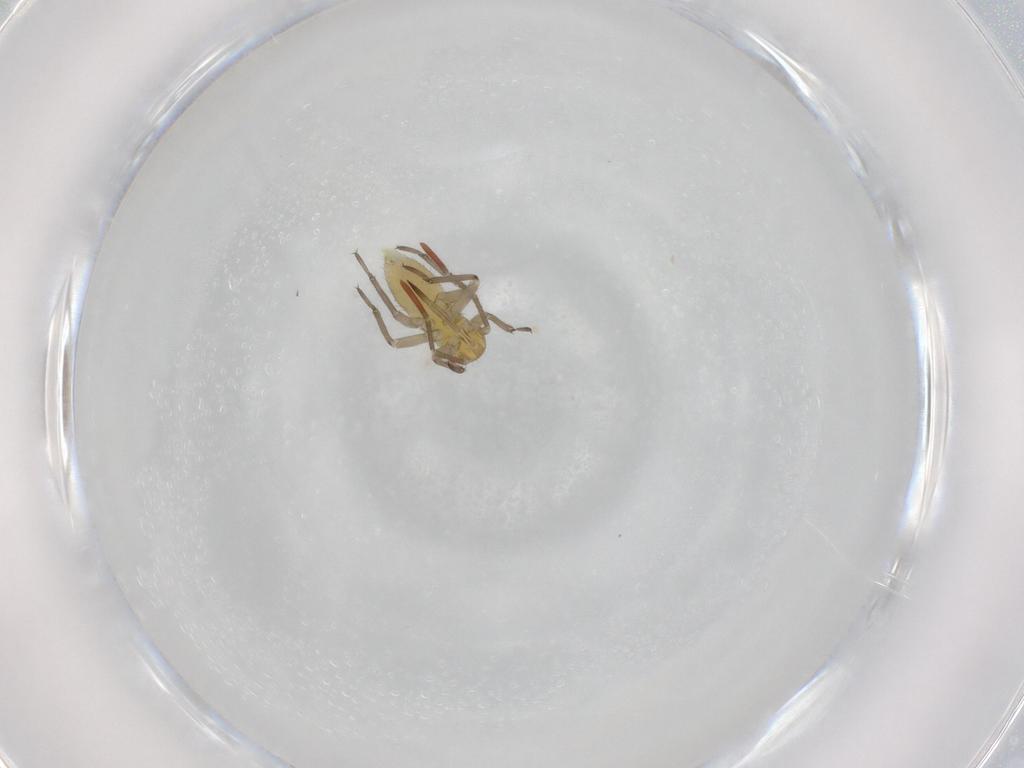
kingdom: Animalia
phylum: Arthropoda
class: Insecta
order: Hemiptera
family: Miridae
